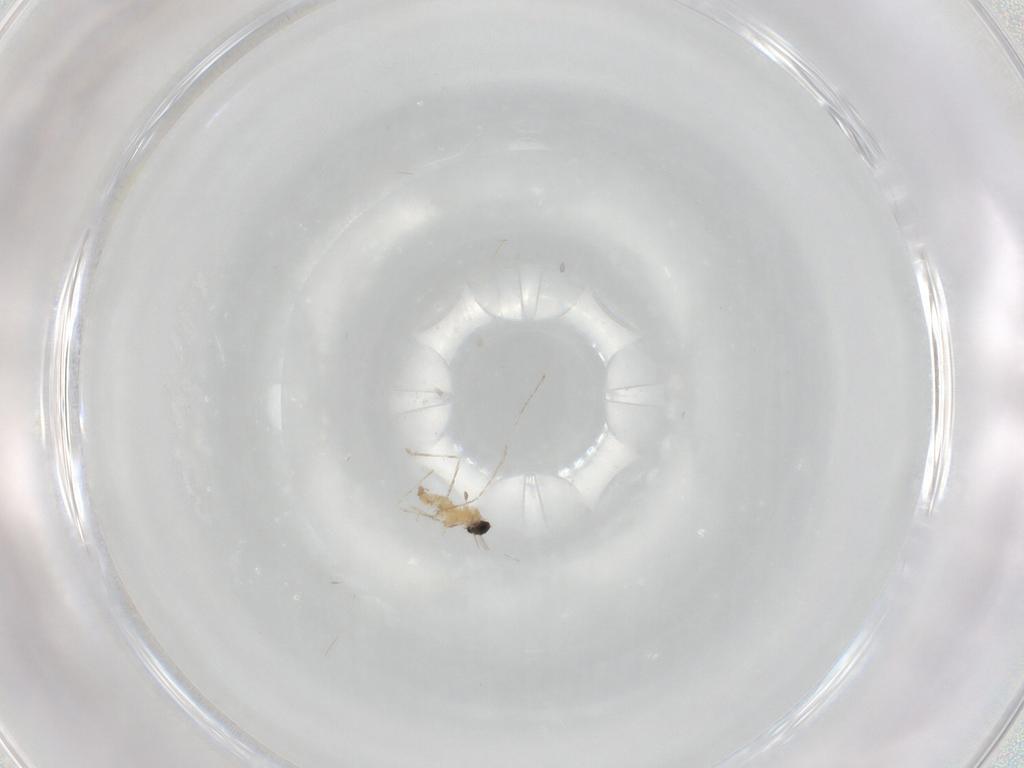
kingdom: Animalia
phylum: Arthropoda
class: Insecta
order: Diptera
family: Cecidomyiidae
